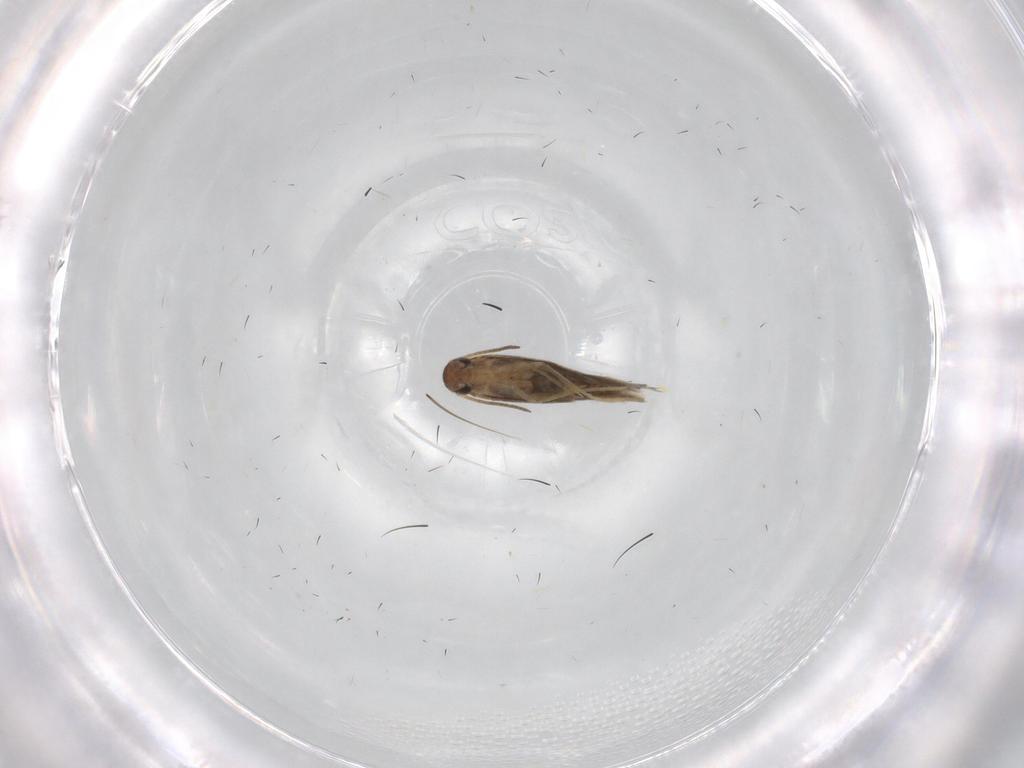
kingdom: Animalia
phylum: Arthropoda
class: Insecta
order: Lepidoptera
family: Heliozelidae
